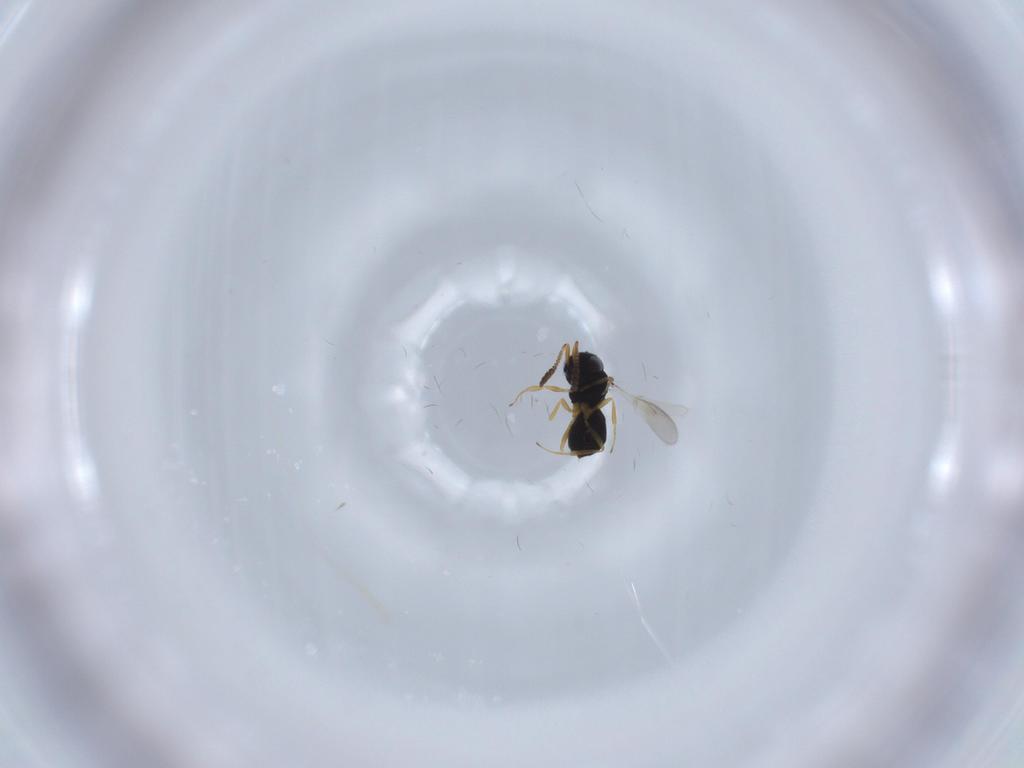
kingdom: Animalia
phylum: Arthropoda
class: Insecta
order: Hymenoptera
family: Scelionidae
